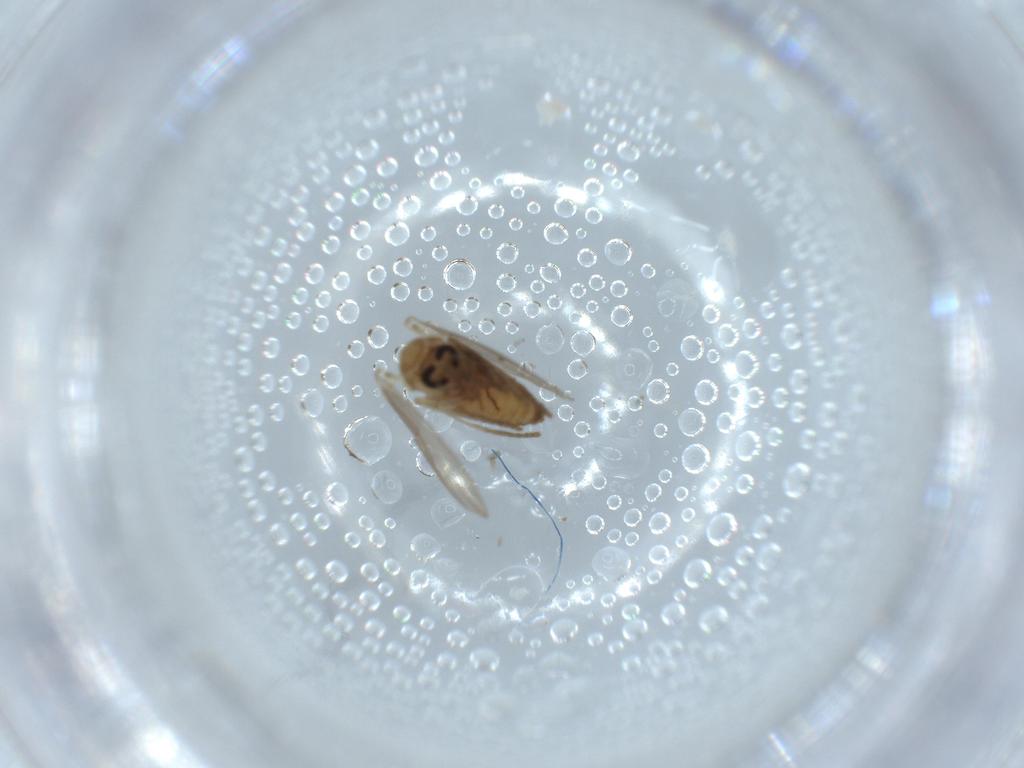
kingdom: Animalia
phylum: Arthropoda
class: Insecta
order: Diptera
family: Psychodidae
